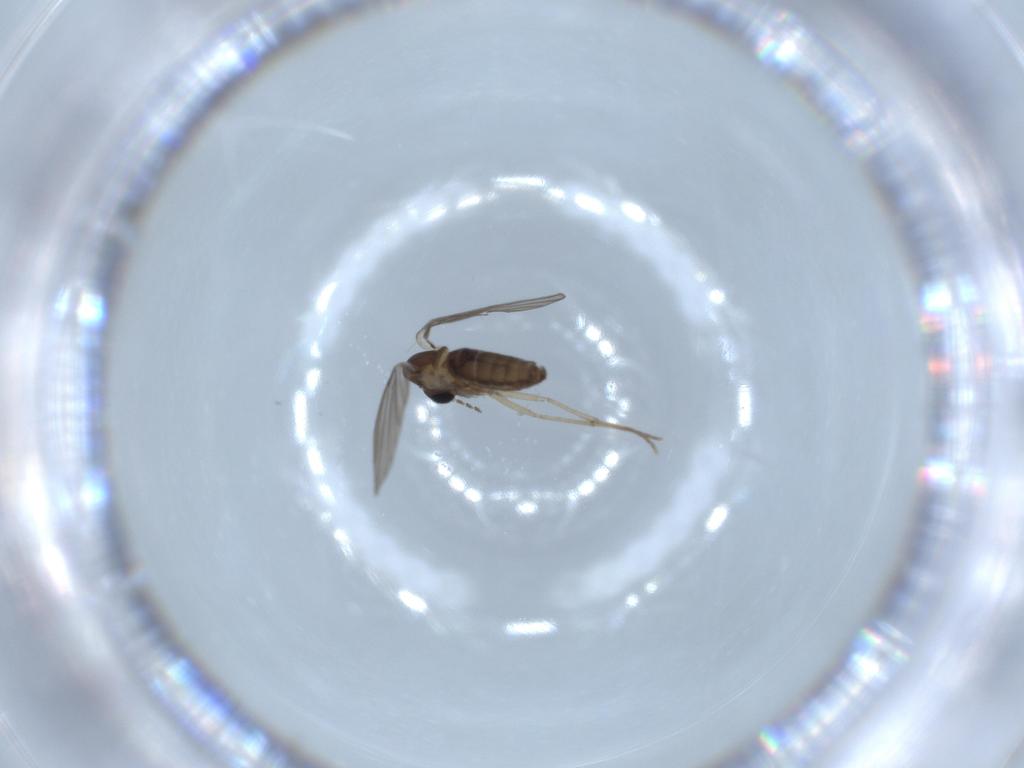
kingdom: Animalia
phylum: Arthropoda
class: Insecta
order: Diptera
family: Psychodidae
